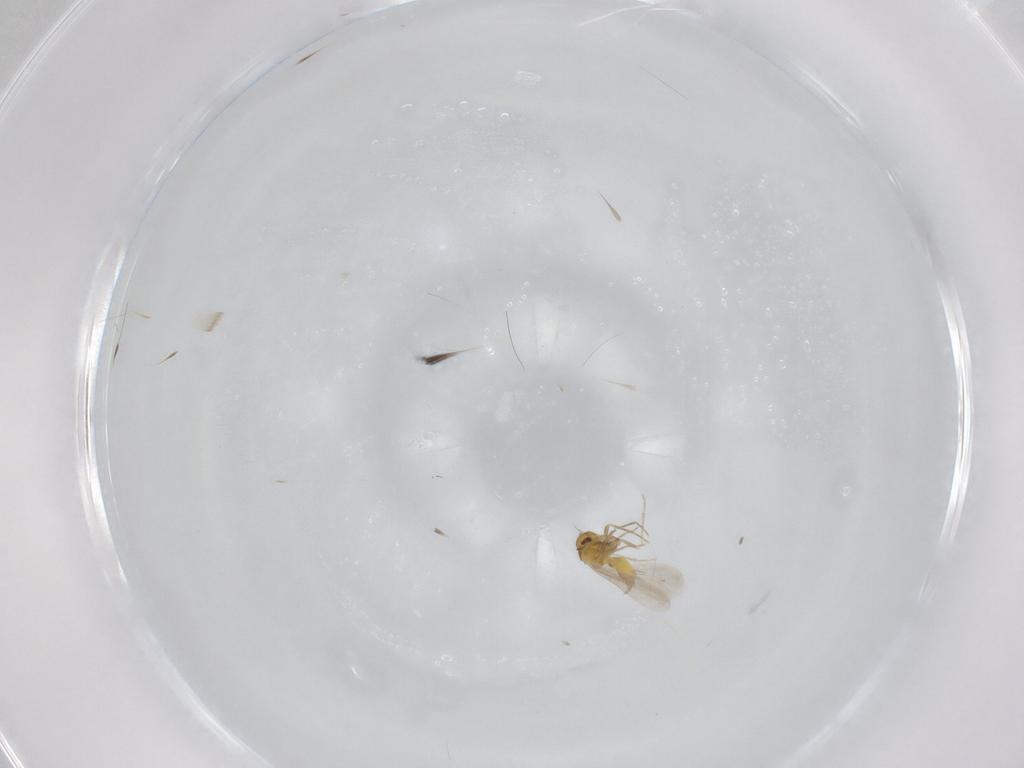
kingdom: Animalia
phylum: Arthropoda
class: Insecta
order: Hemiptera
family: Aleyrodidae
